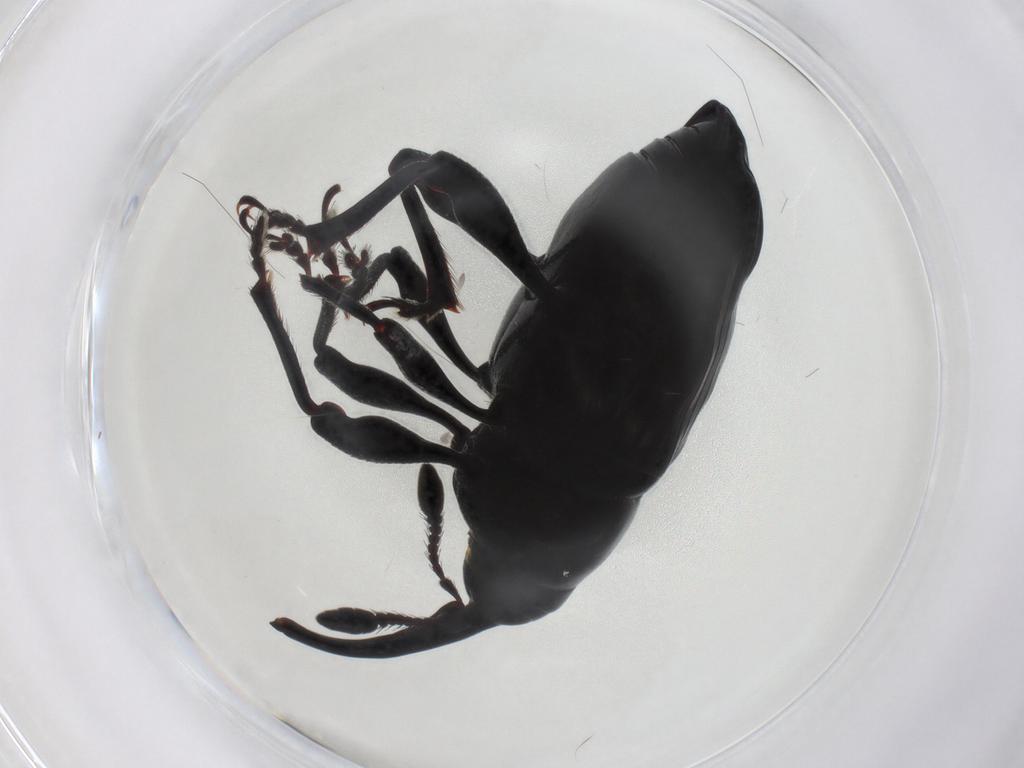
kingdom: Animalia
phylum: Arthropoda
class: Insecta
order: Coleoptera
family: Curculionidae
